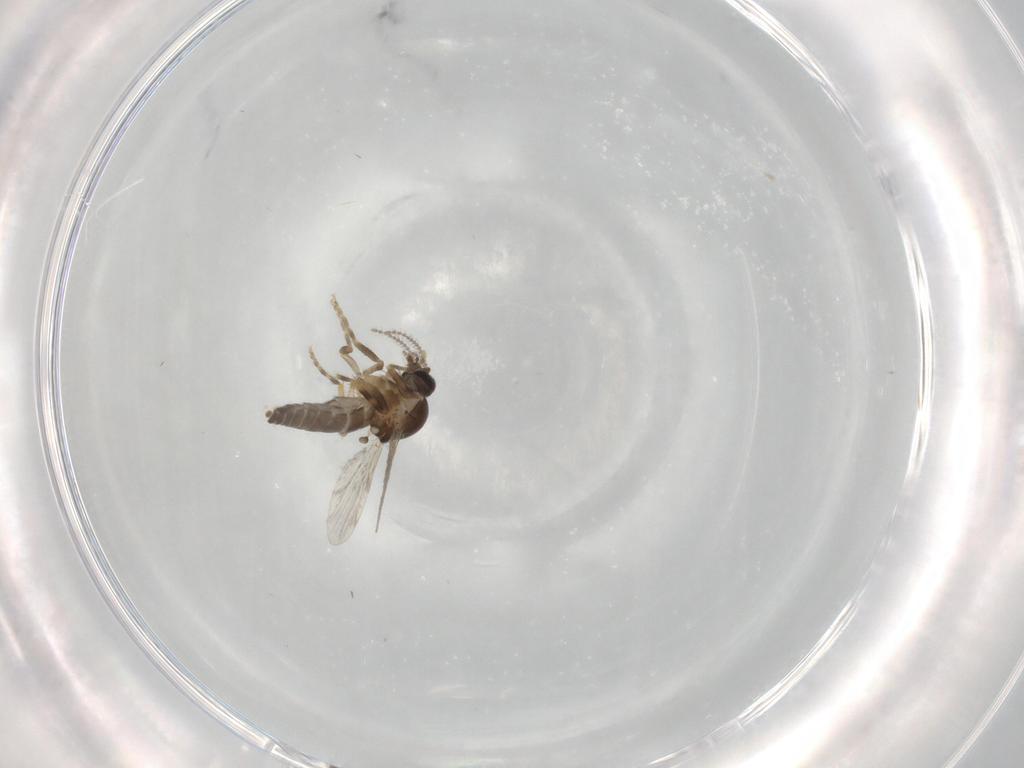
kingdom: Animalia
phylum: Arthropoda
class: Insecta
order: Diptera
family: Ceratopogonidae
